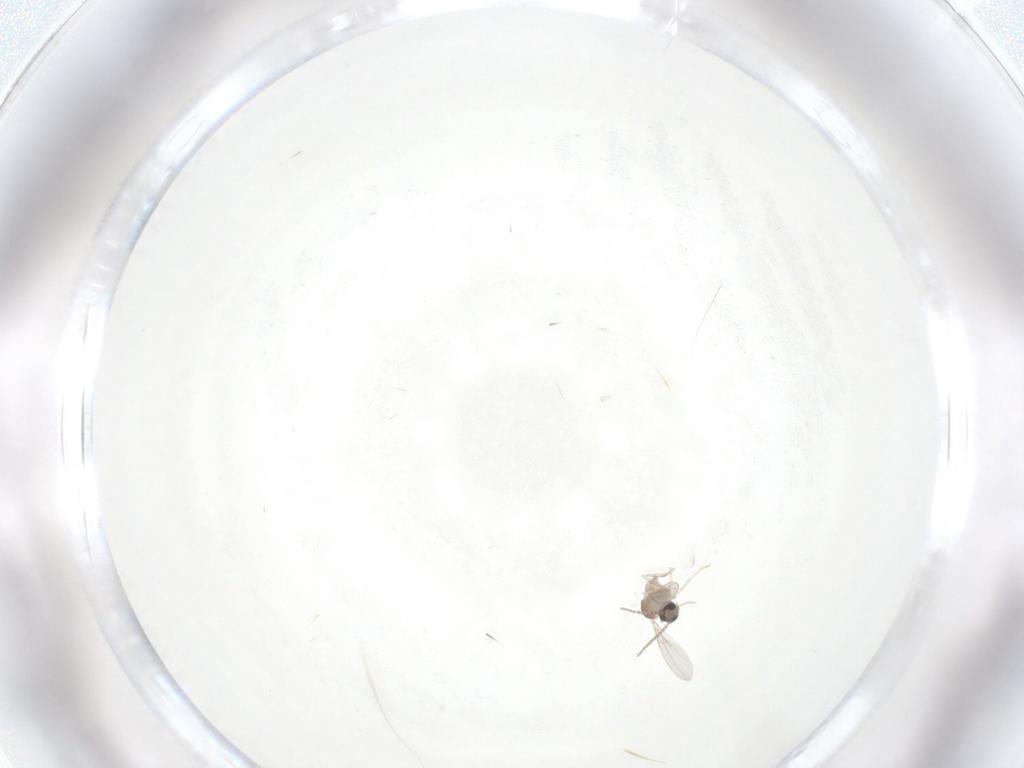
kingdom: Animalia
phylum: Arthropoda
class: Insecta
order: Diptera
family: Cecidomyiidae
